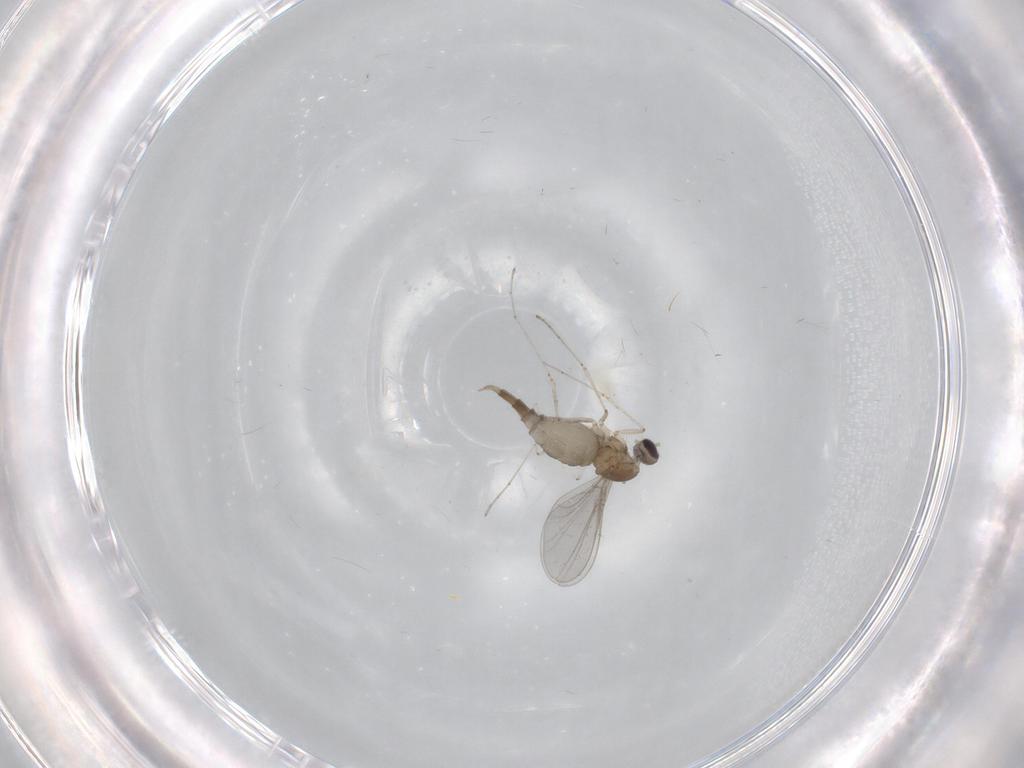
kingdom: Animalia
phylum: Arthropoda
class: Insecta
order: Diptera
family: Cecidomyiidae
